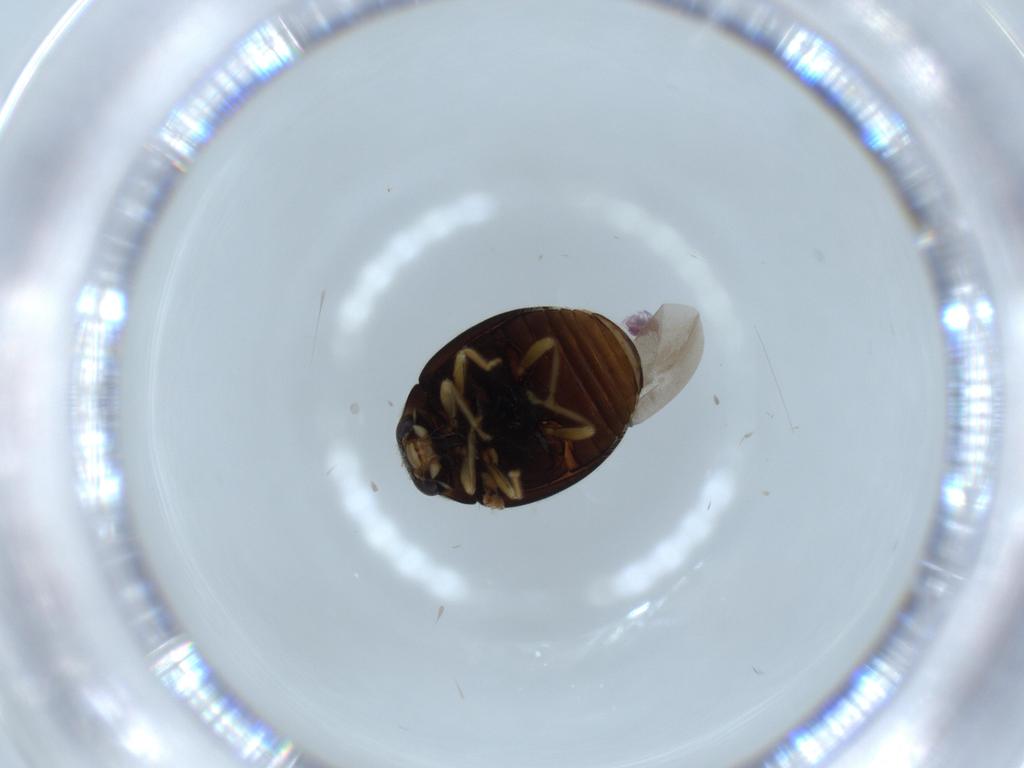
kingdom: Animalia
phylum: Arthropoda
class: Insecta
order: Coleoptera
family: Coccinellidae
